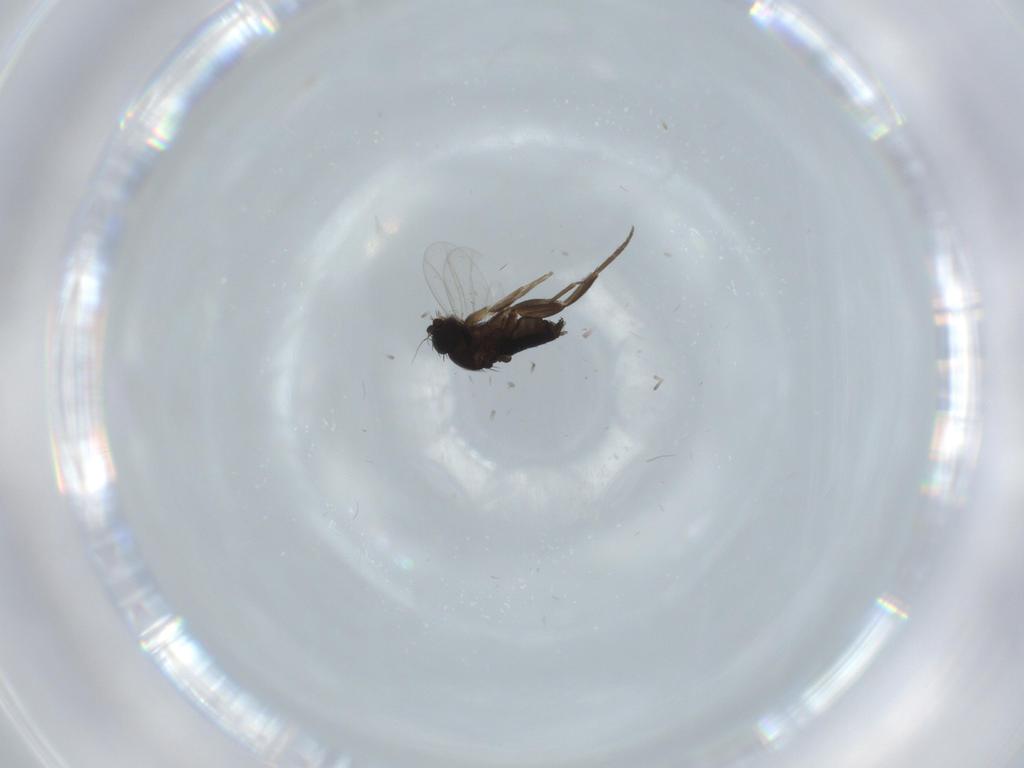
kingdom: Animalia
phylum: Arthropoda
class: Insecta
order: Diptera
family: Phoridae
